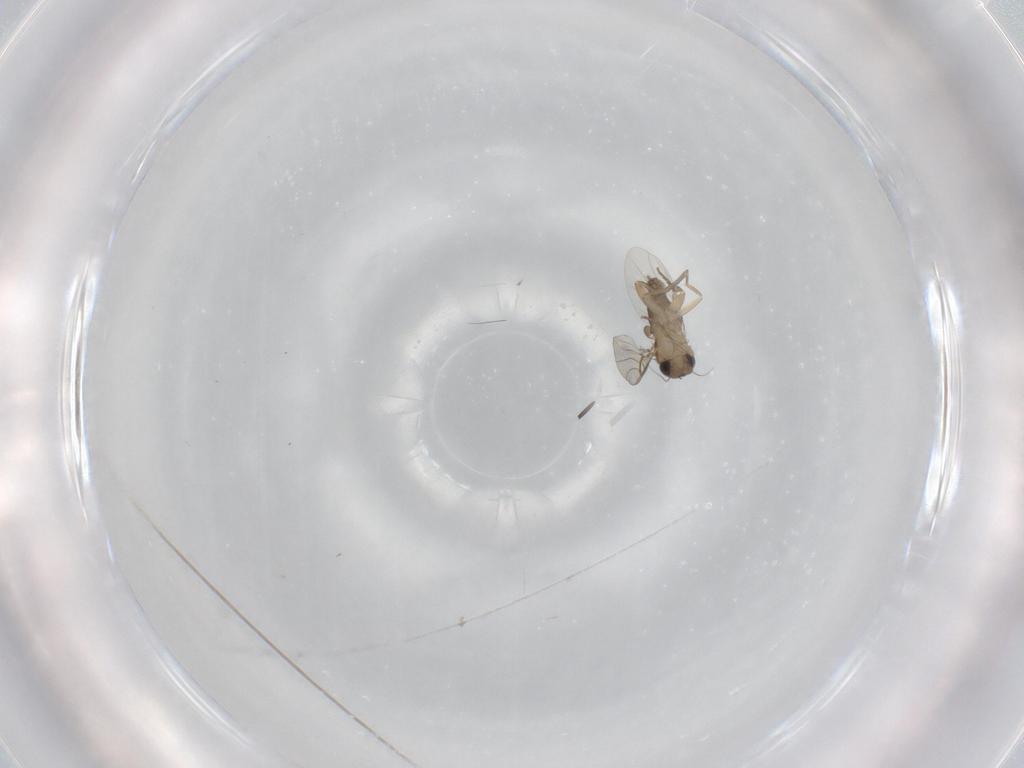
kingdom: Animalia
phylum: Arthropoda
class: Insecta
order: Diptera
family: Phoridae
